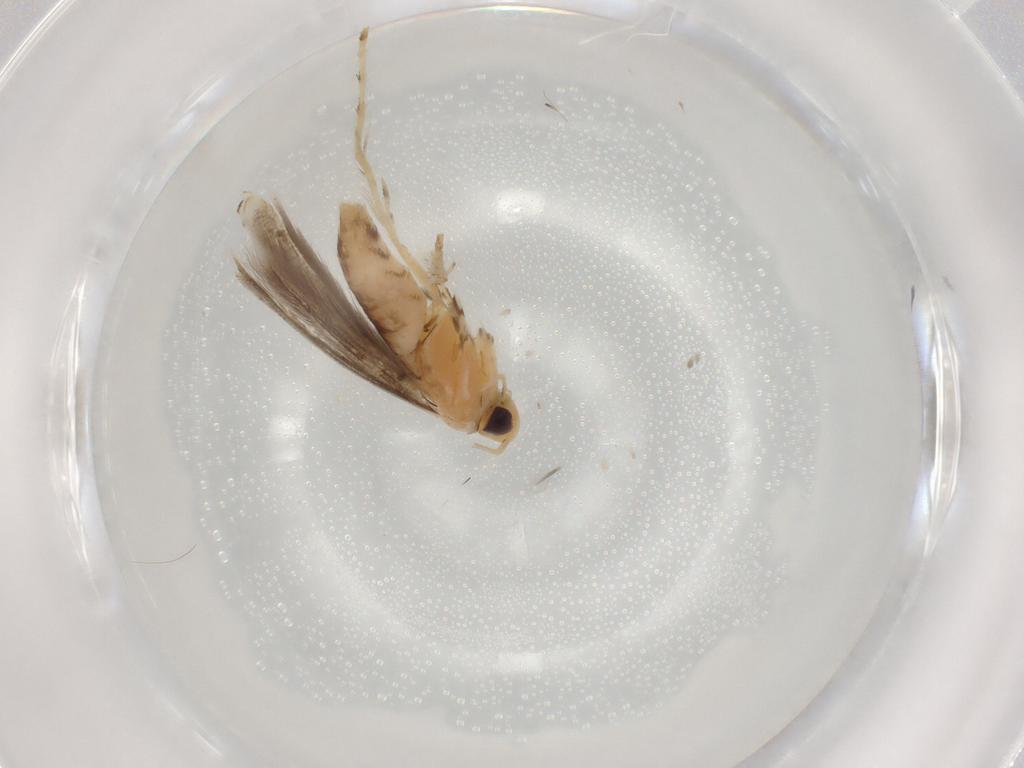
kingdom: Animalia
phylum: Arthropoda
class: Insecta
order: Lepidoptera
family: Gracillariidae
